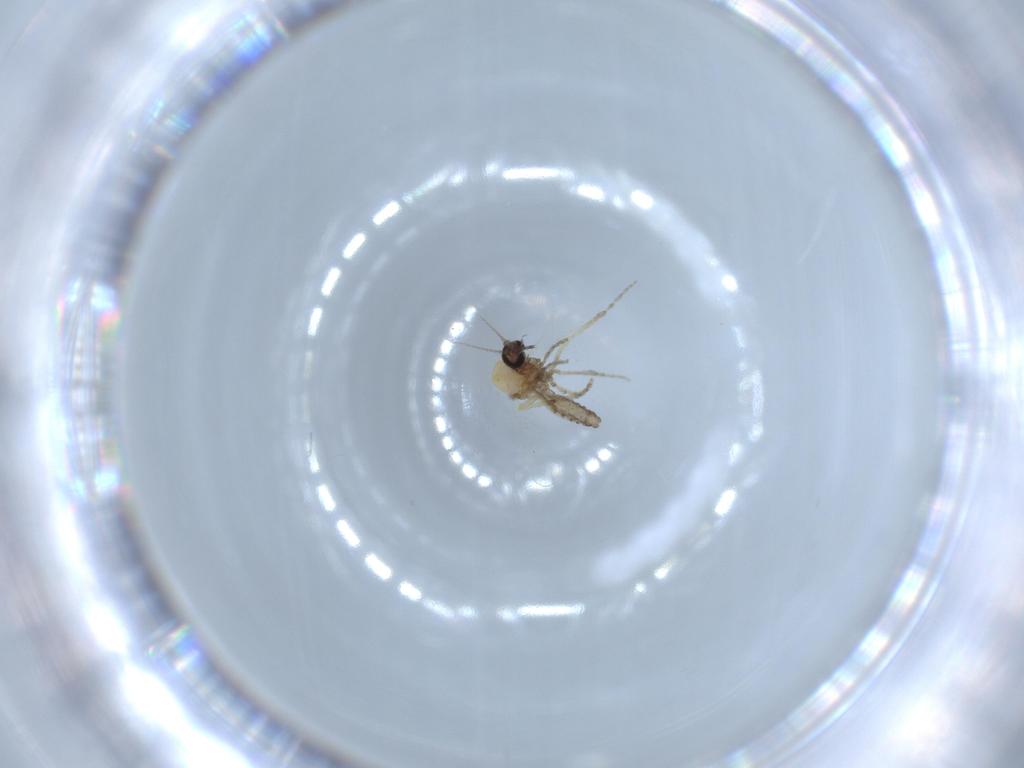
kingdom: Animalia
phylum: Arthropoda
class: Insecta
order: Diptera
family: Ceratopogonidae
